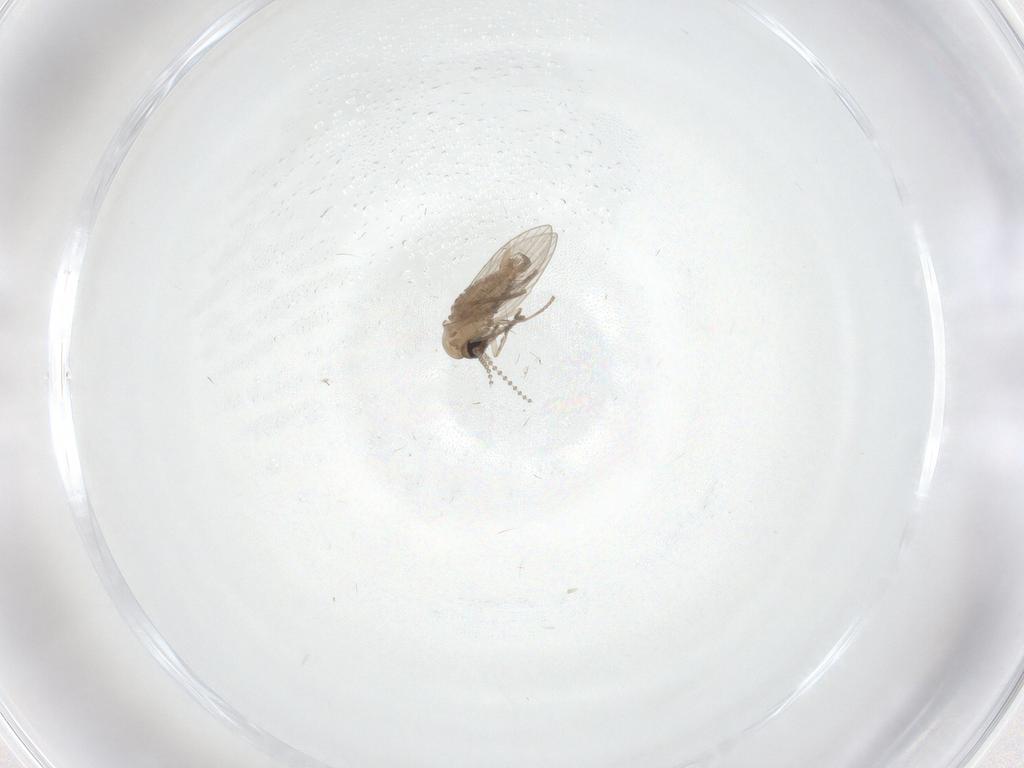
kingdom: Animalia
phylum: Arthropoda
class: Insecta
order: Diptera
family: Psychodidae
